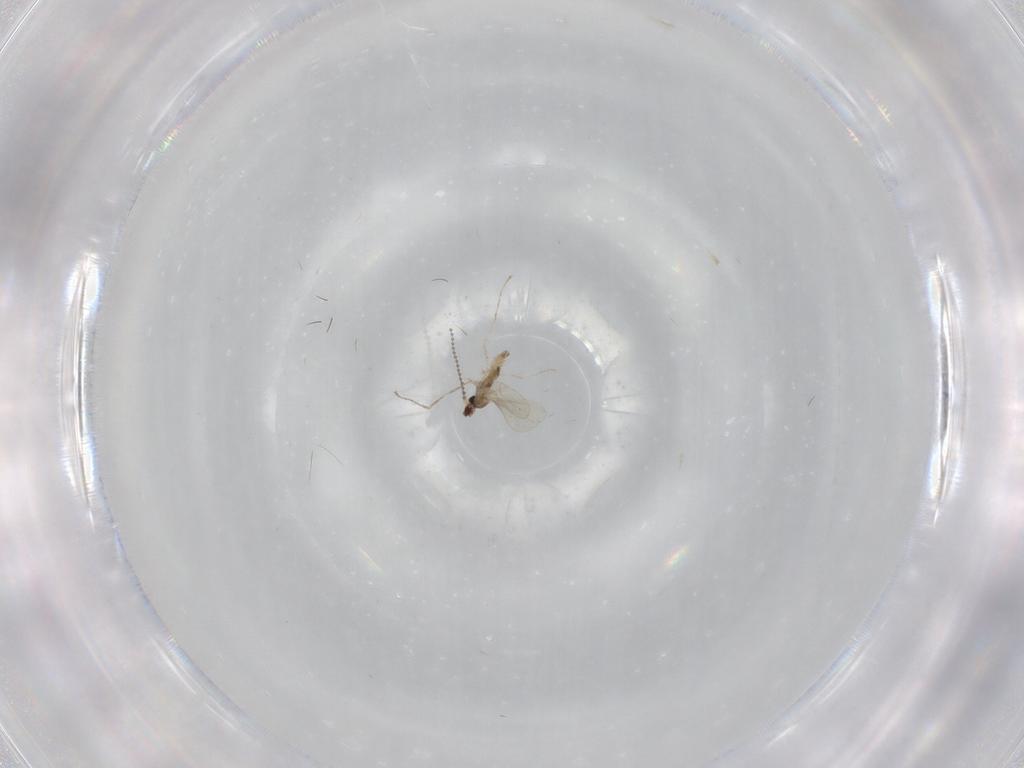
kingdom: Animalia
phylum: Arthropoda
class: Insecta
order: Diptera
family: Cecidomyiidae
